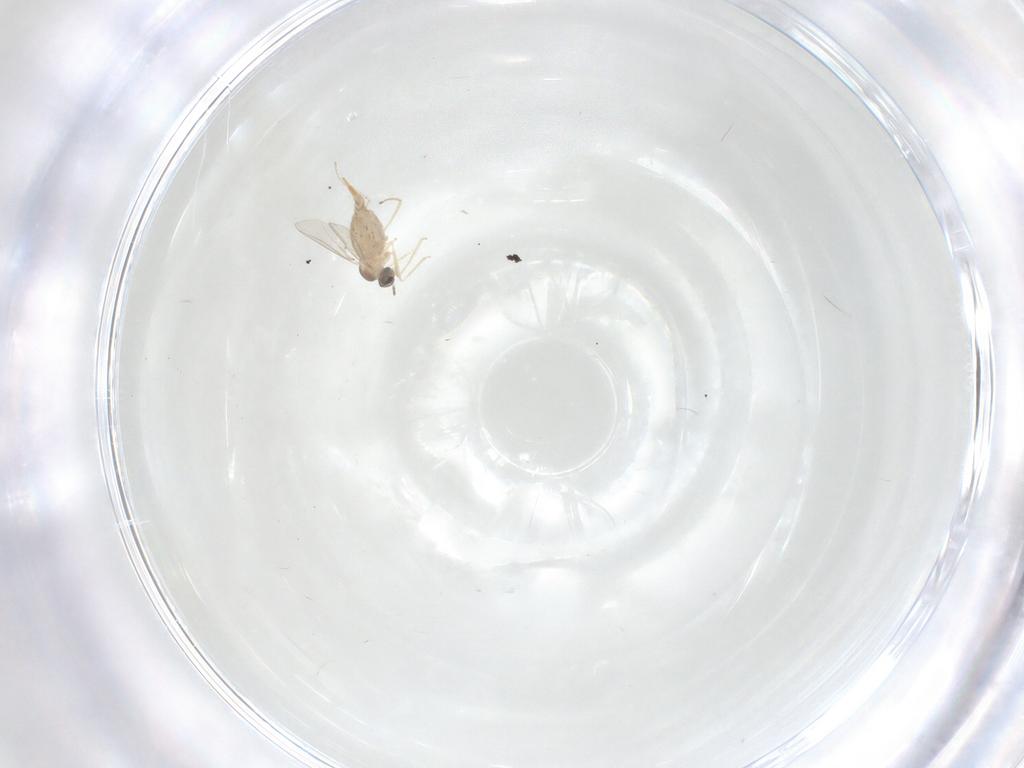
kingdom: Animalia
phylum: Arthropoda
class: Insecta
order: Diptera
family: Cecidomyiidae
